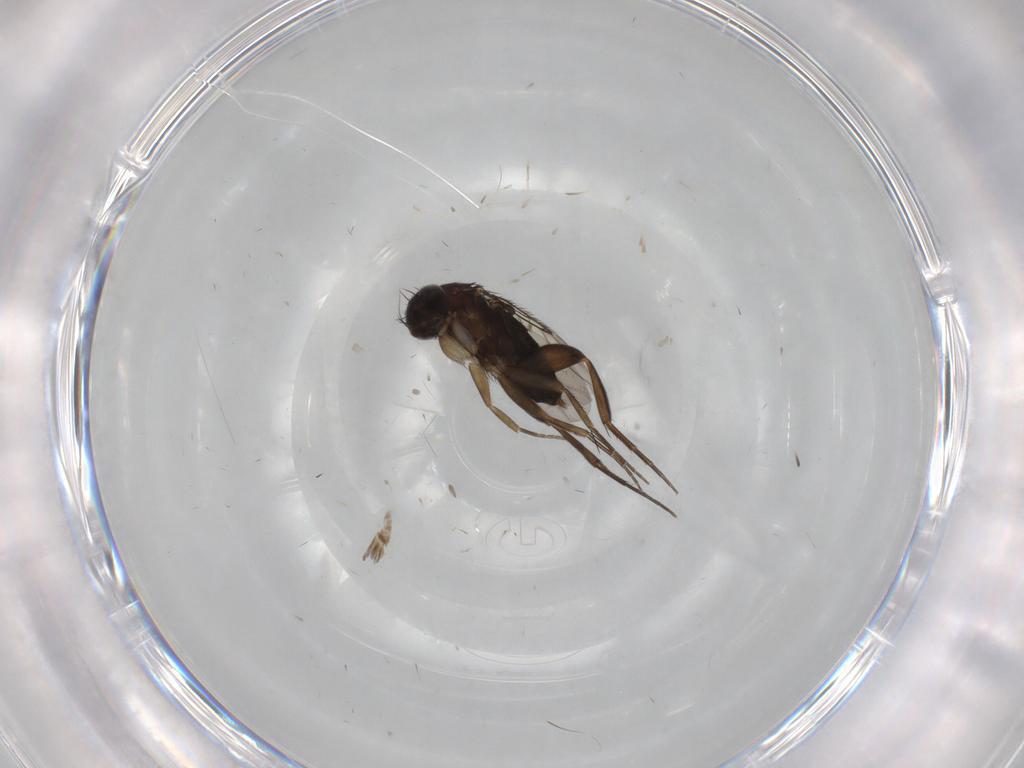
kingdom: Animalia
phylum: Arthropoda
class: Insecta
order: Diptera
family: Phoridae
